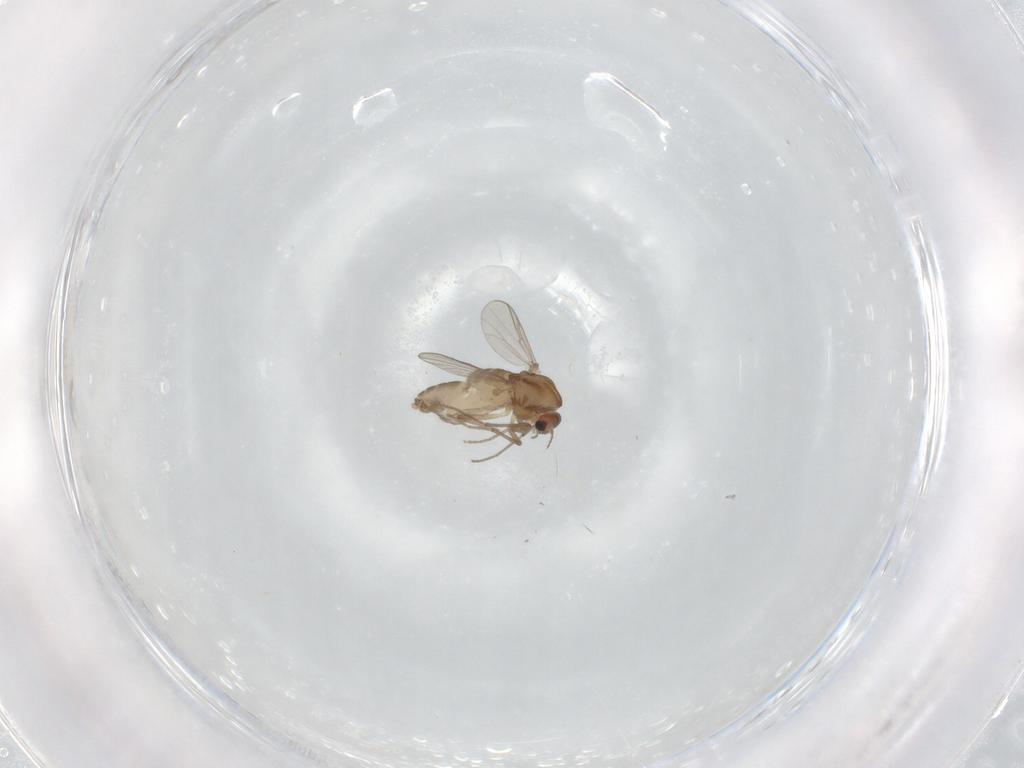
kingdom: Animalia
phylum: Arthropoda
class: Insecta
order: Diptera
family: Chironomidae
